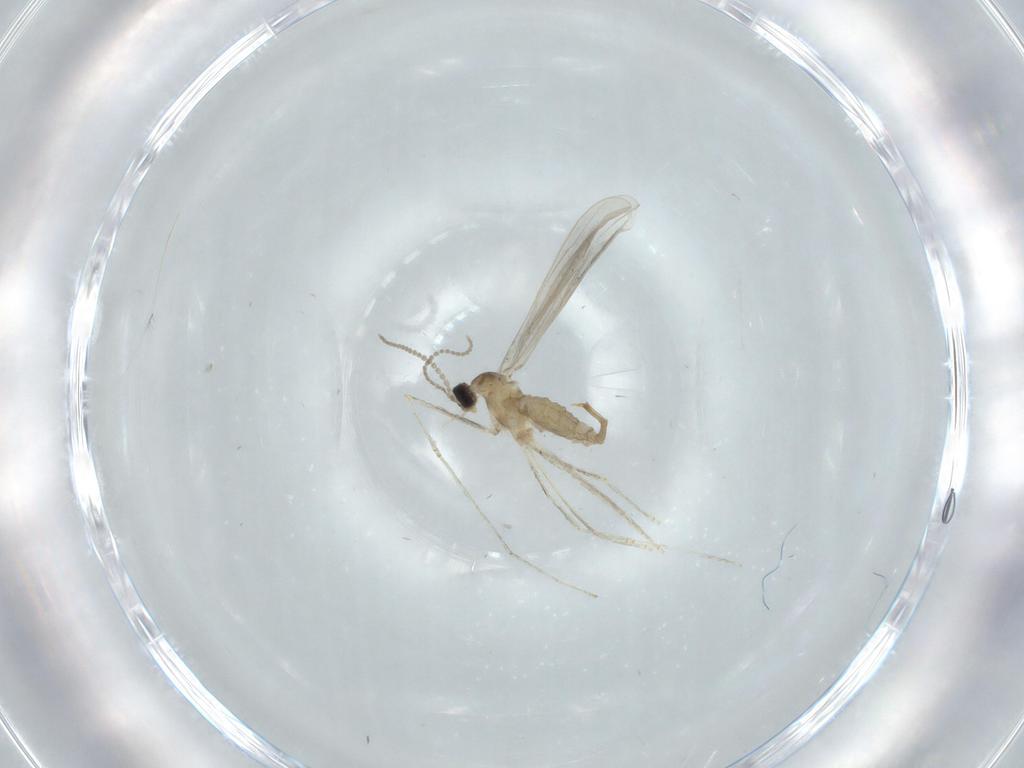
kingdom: Animalia
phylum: Arthropoda
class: Insecta
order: Diptera
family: Cecidomyiidae
